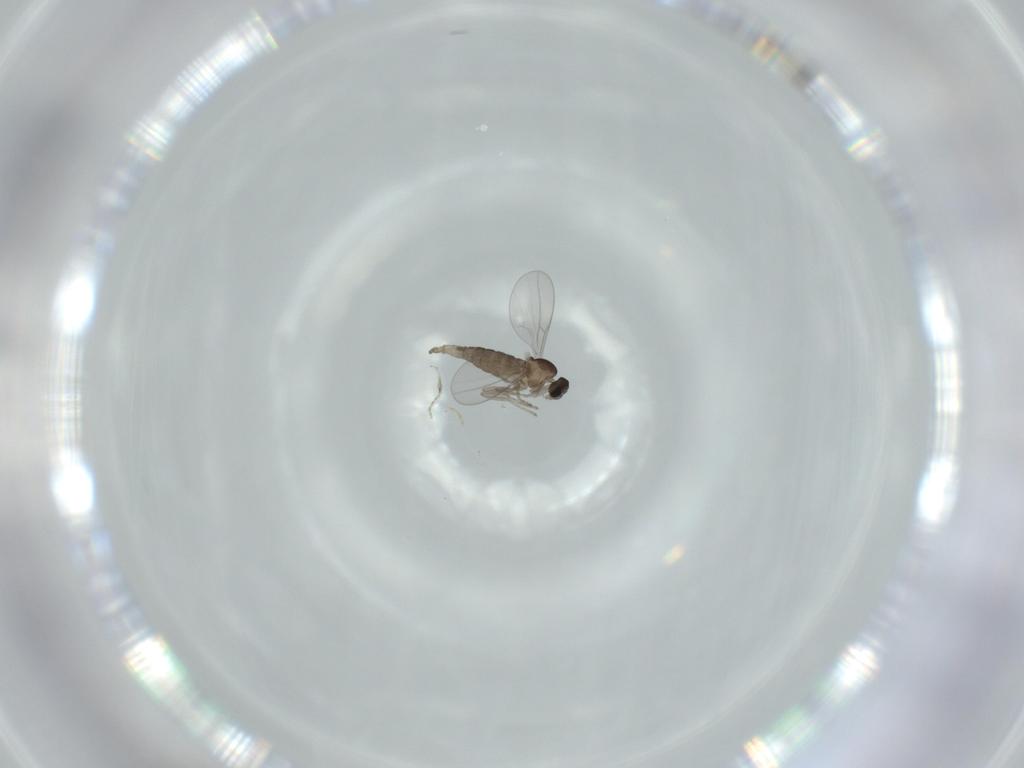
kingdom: Animalia
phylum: Arthropoda
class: Insecta
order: Diptera
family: Cecidomyiidae
